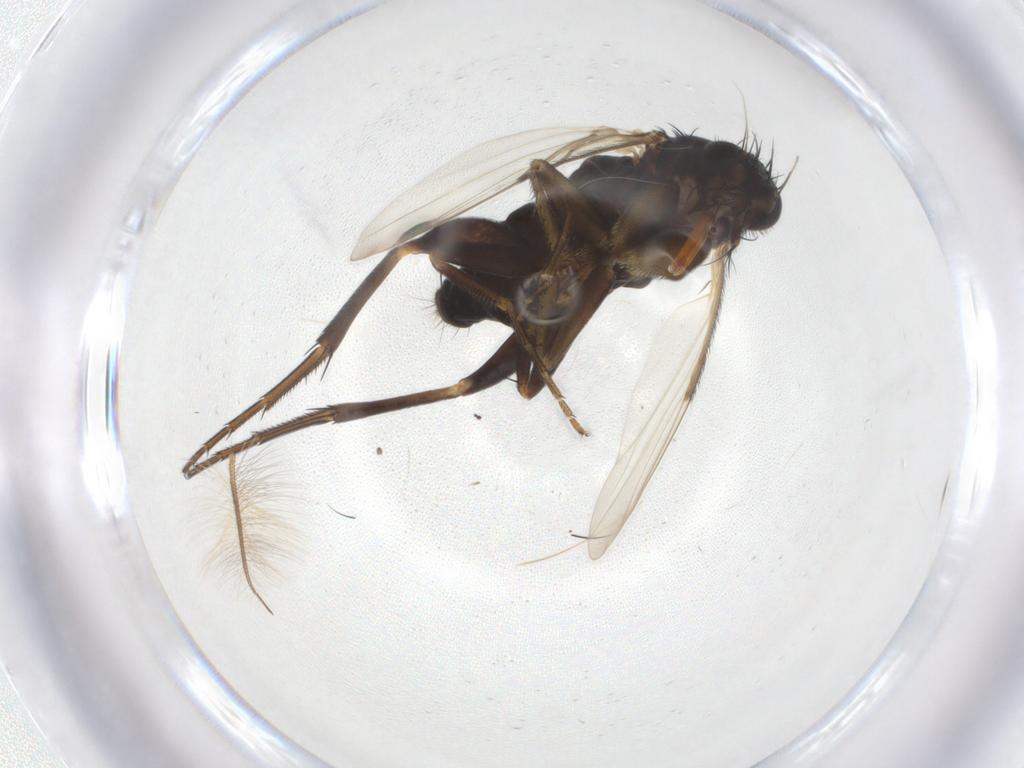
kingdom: Animalia
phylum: Arthropoda
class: Insecta
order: Diptera
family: Phoridae
